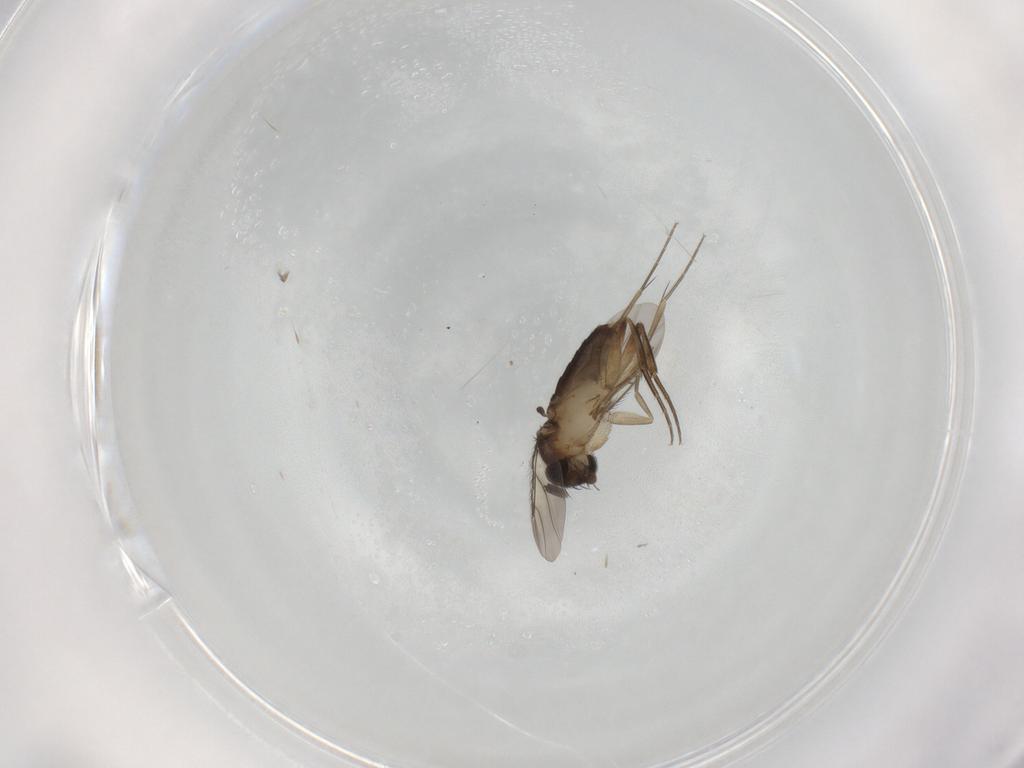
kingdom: Animalia
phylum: Arthropoda
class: Insecta
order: Diptera
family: Phoridae
